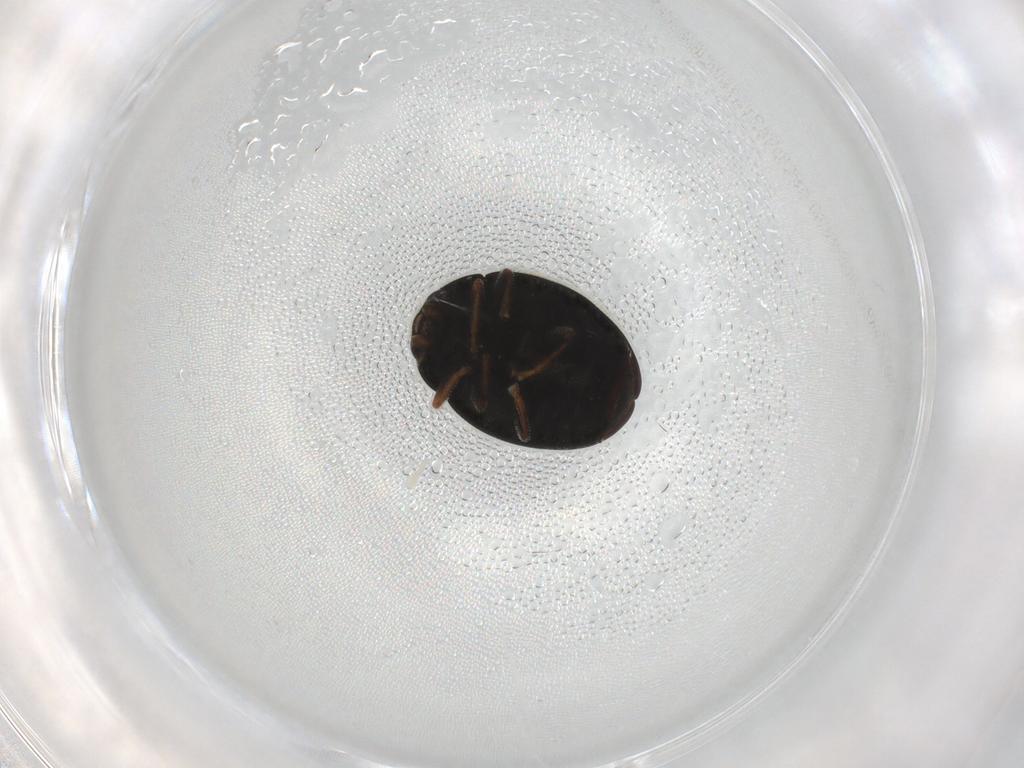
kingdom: Animalia
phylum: Arthropoda
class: Insecta
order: Coleoptera
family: Coccinellidae
